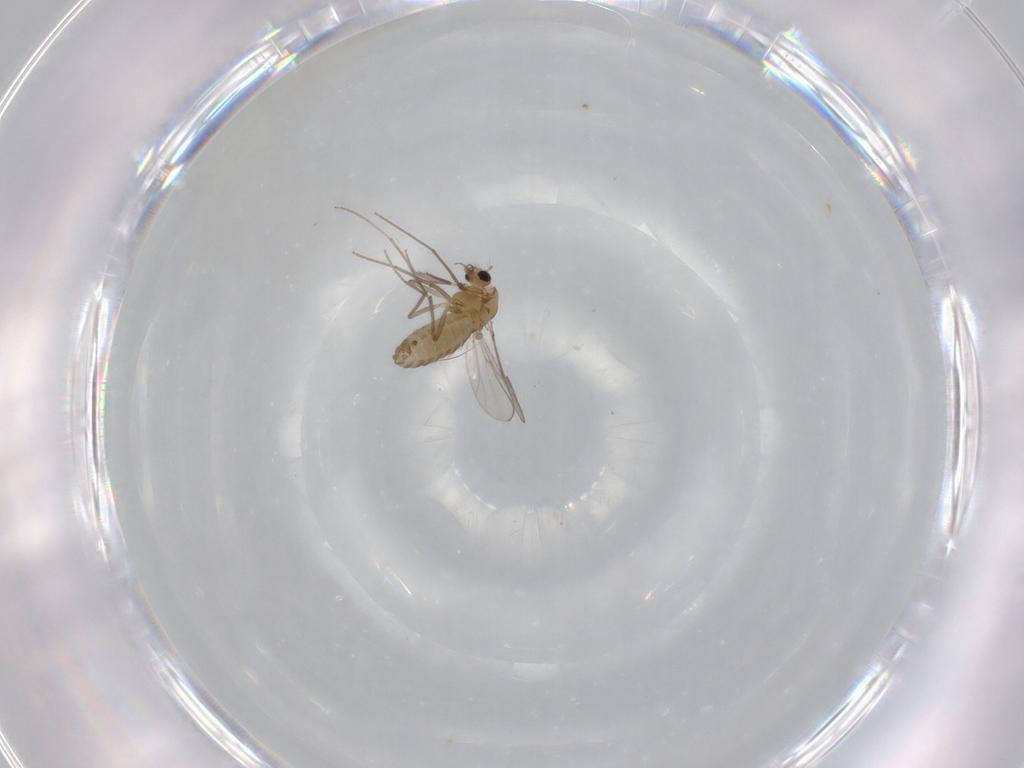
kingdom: Animalia
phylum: Arthropoda
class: Insecta
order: Diptera
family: Chironomidae
